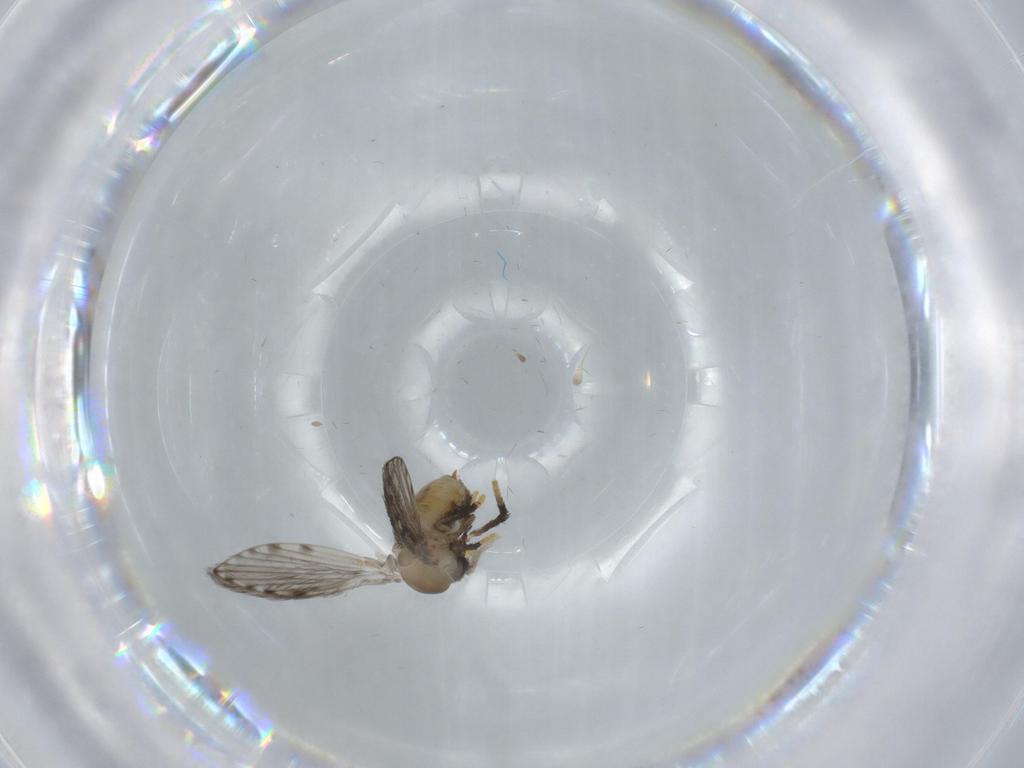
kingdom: Animalia
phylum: Arthropoda
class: Insecta
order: Diptera
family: Psychodidae
